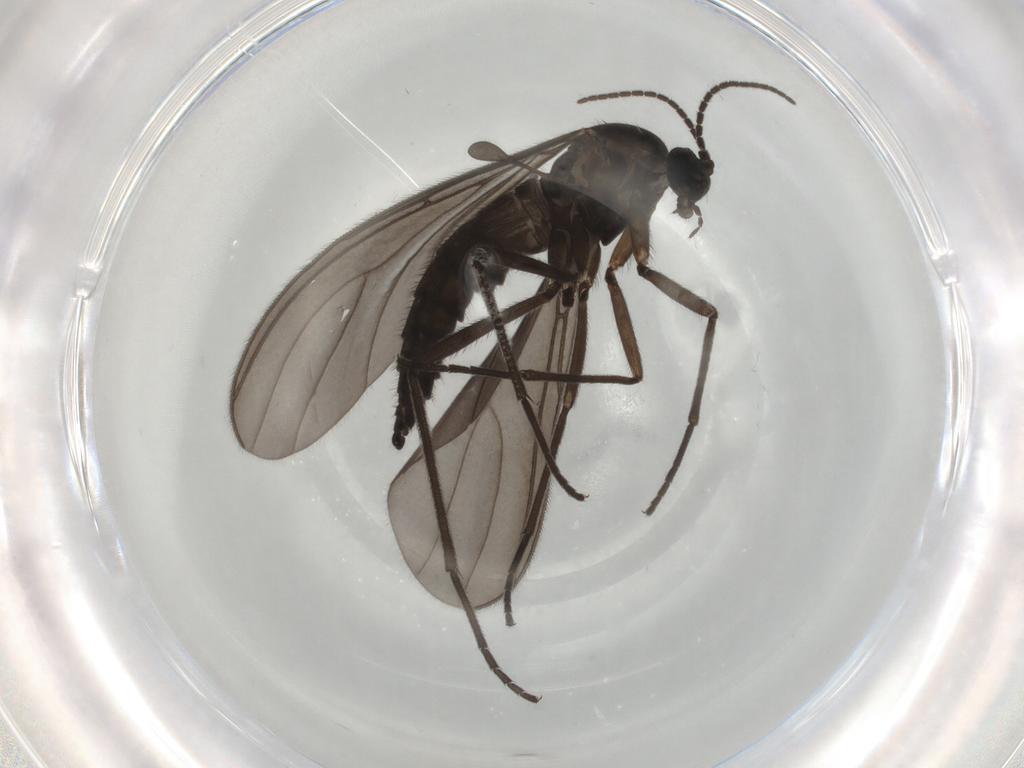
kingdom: Animalia
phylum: Arthropoda
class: Insecta
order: Diptera
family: Sciaridae
